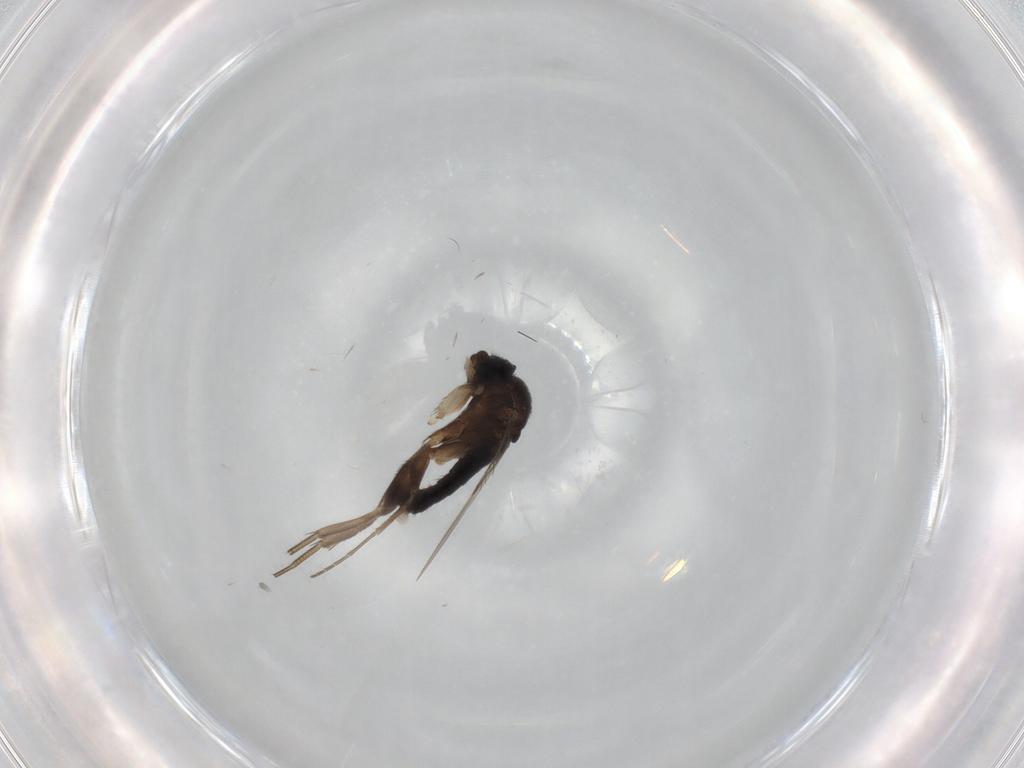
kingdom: Animalia
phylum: Arthropoda
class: Insecta
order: Diptera
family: Phoridae
